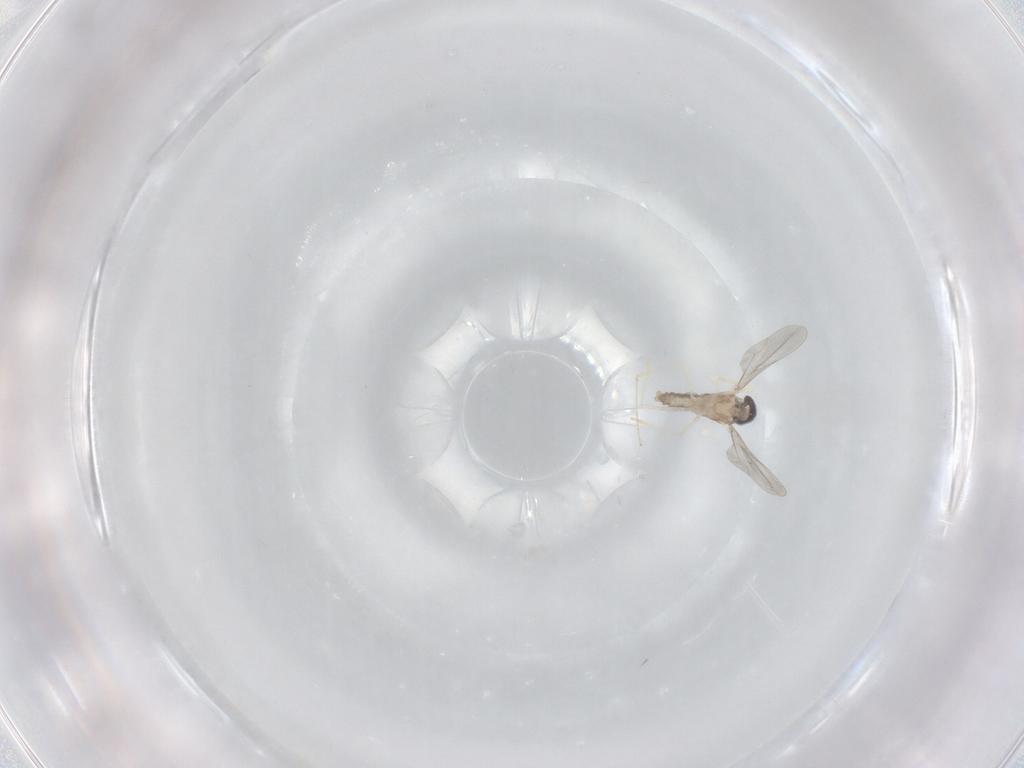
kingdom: Animalia
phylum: Arthropoda
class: Insecta
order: Diptera
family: Cecidomyiidae
